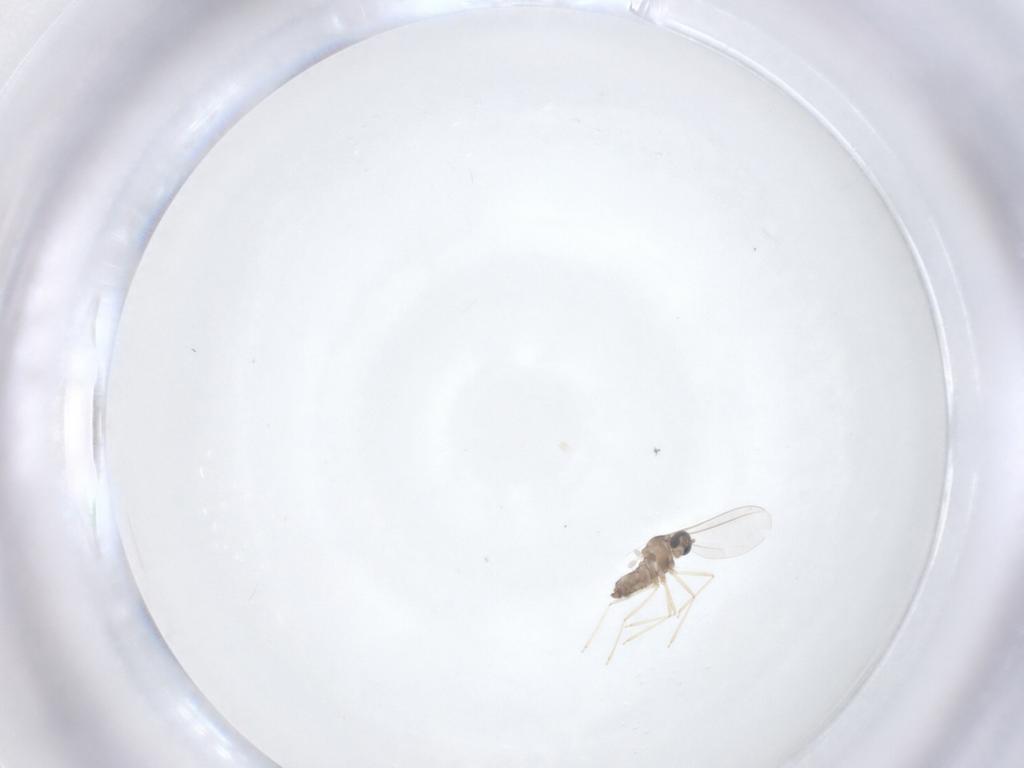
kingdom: Animalia
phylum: Arthropoda
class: Insecta
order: Diptera
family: Cecidomyiidae
